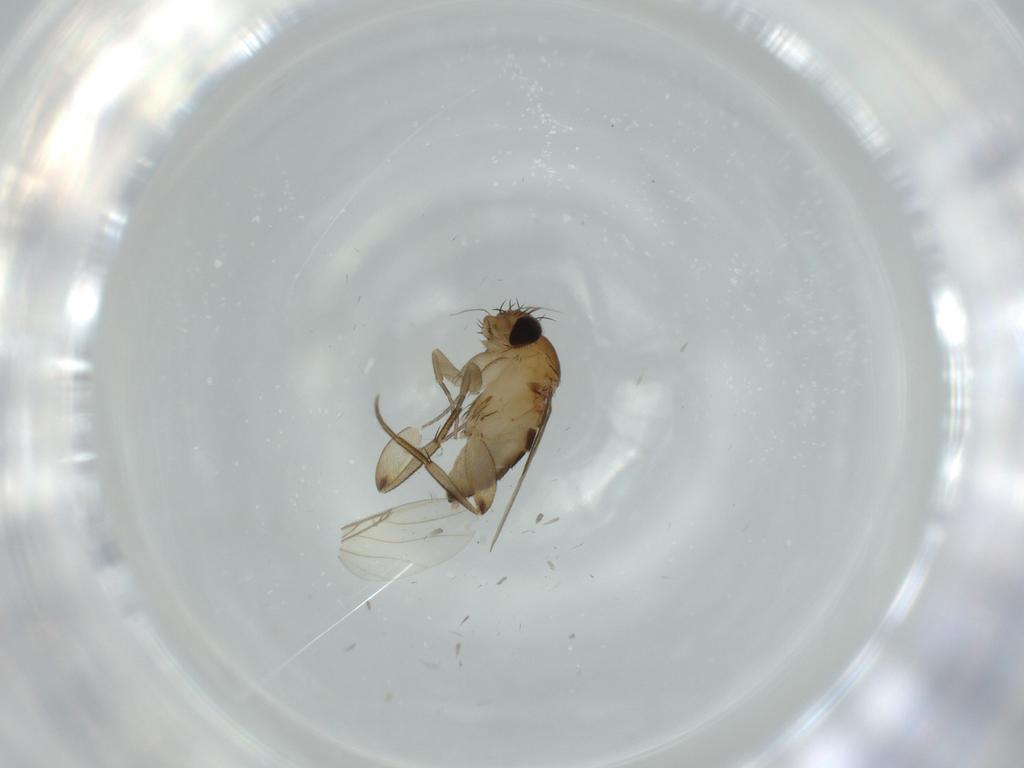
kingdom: Animalia
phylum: Arthropoda
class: Insecta
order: Diptera
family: Phoridae
